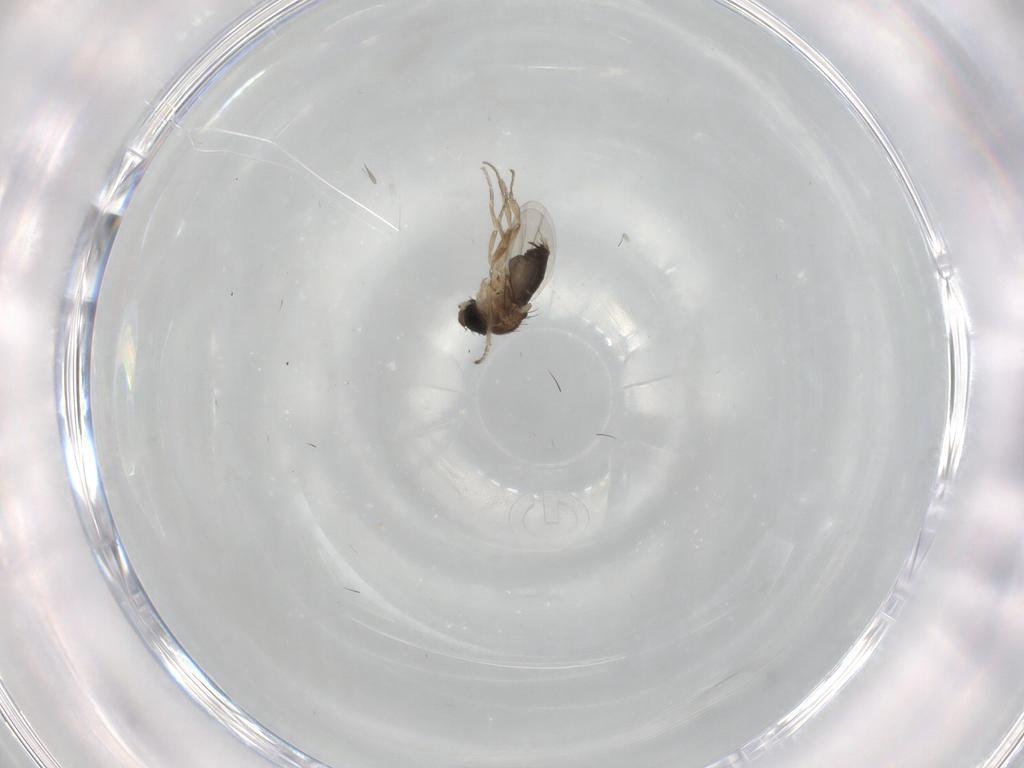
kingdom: Animalia
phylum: Arthropoda
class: Insecta
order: Diptera
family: Phoridae
